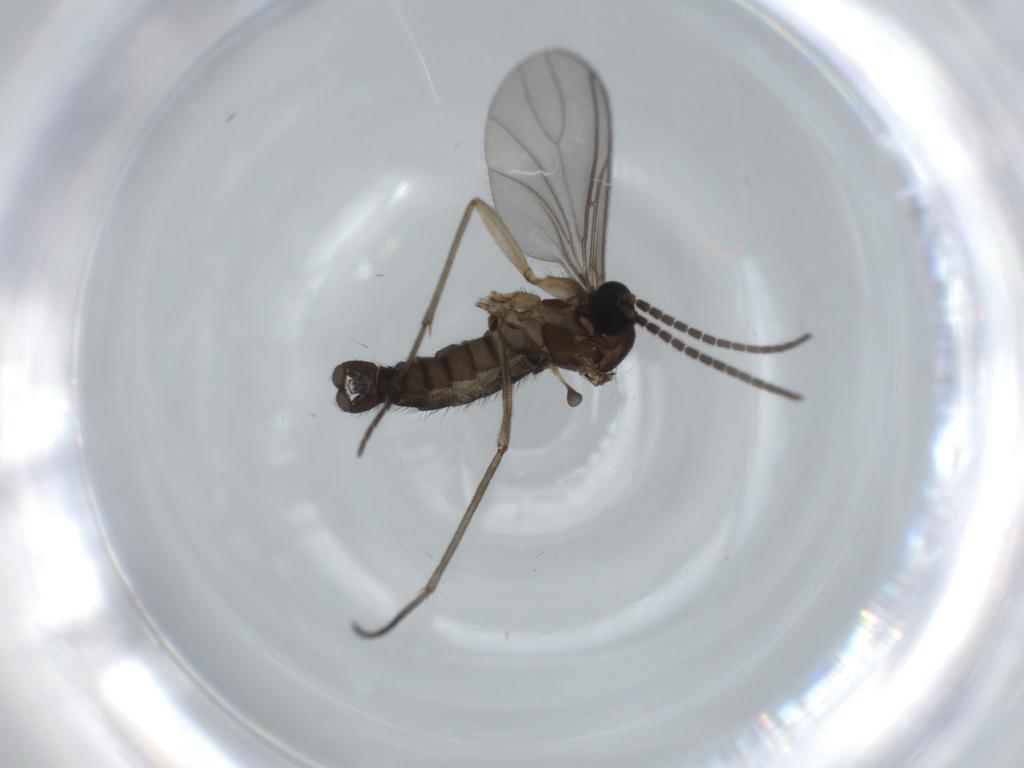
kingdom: Animalia
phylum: Arthropoda
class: Insecta
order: Diptera
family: Sciaridae
